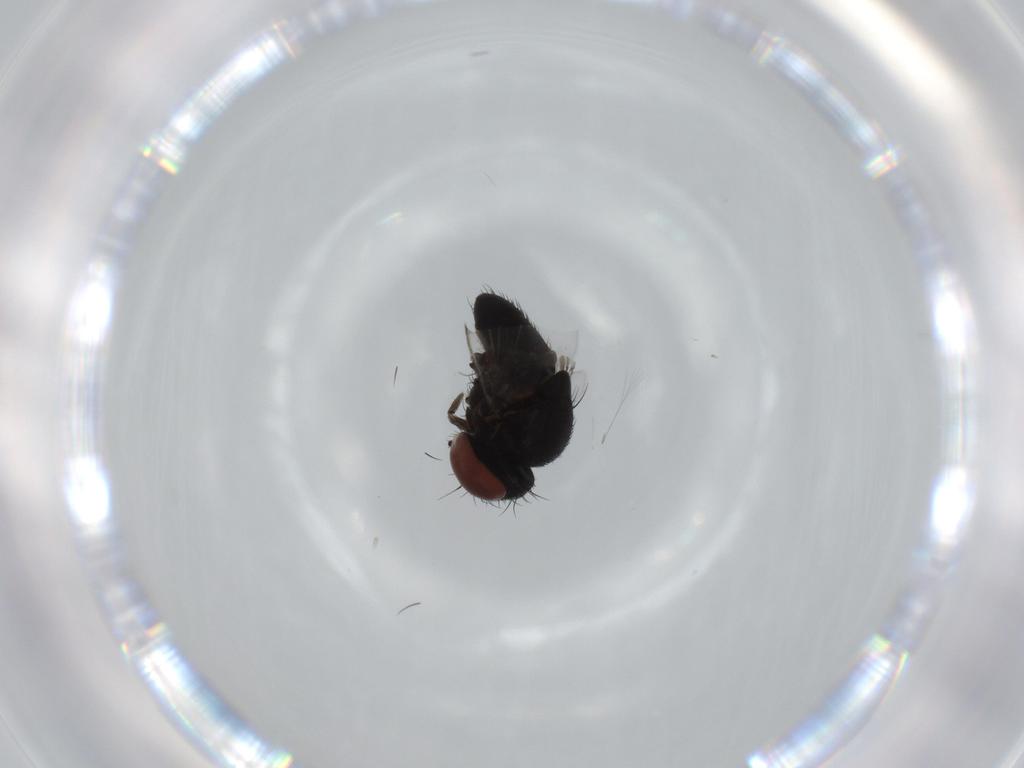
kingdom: Animalia
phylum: Arthropoda
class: Insecta
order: Diptera
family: Milichiidae
